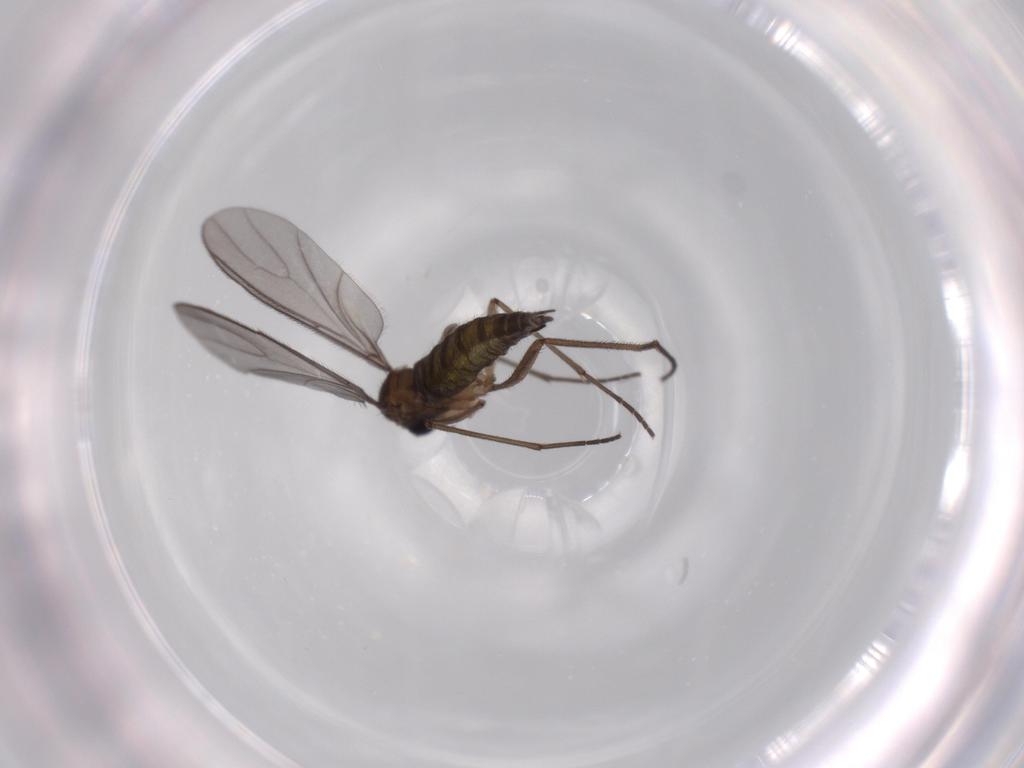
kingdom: Animalia
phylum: Arthropoda
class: Insecta
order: Diptera
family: Sciaridae
